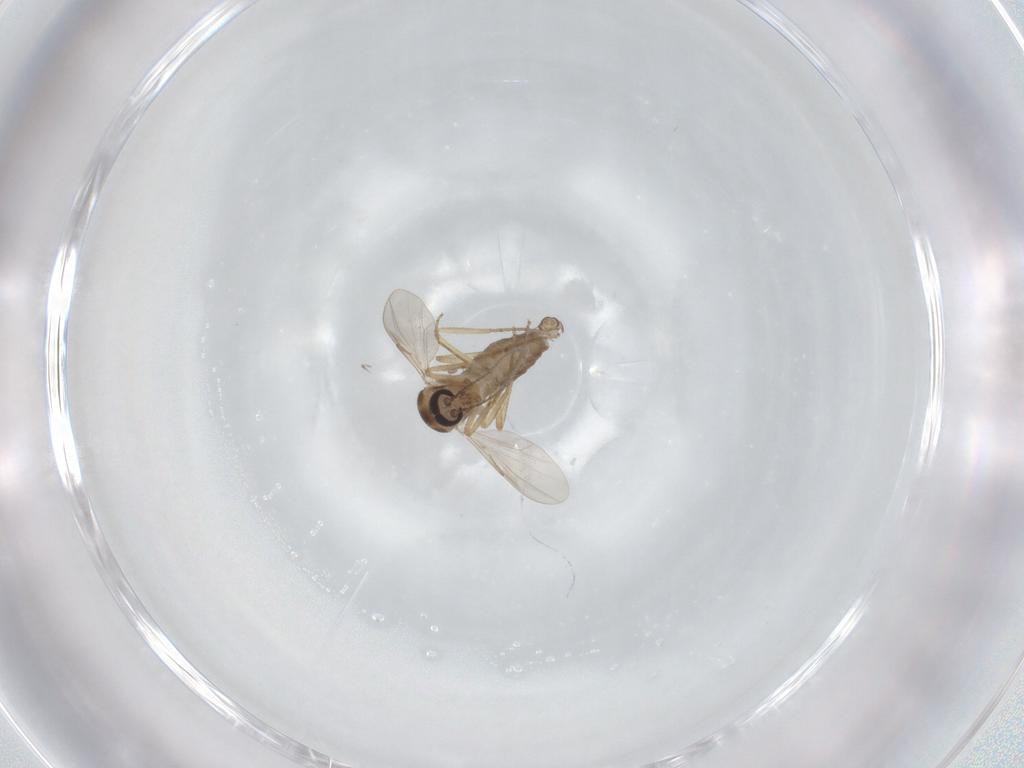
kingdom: Animalia
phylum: Arthropoda
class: Insecta
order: Diptera
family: Ceratopogonidae
